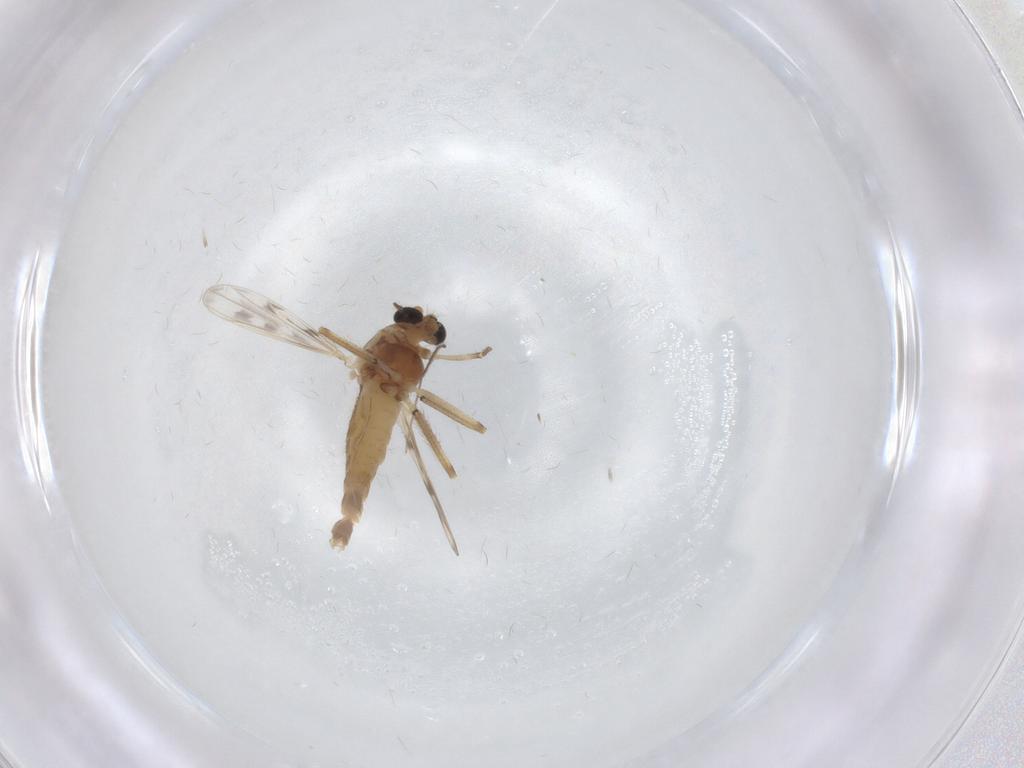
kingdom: Animalia
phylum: Arthropoda
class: Insecta
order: Diptera
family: Chironomidae
